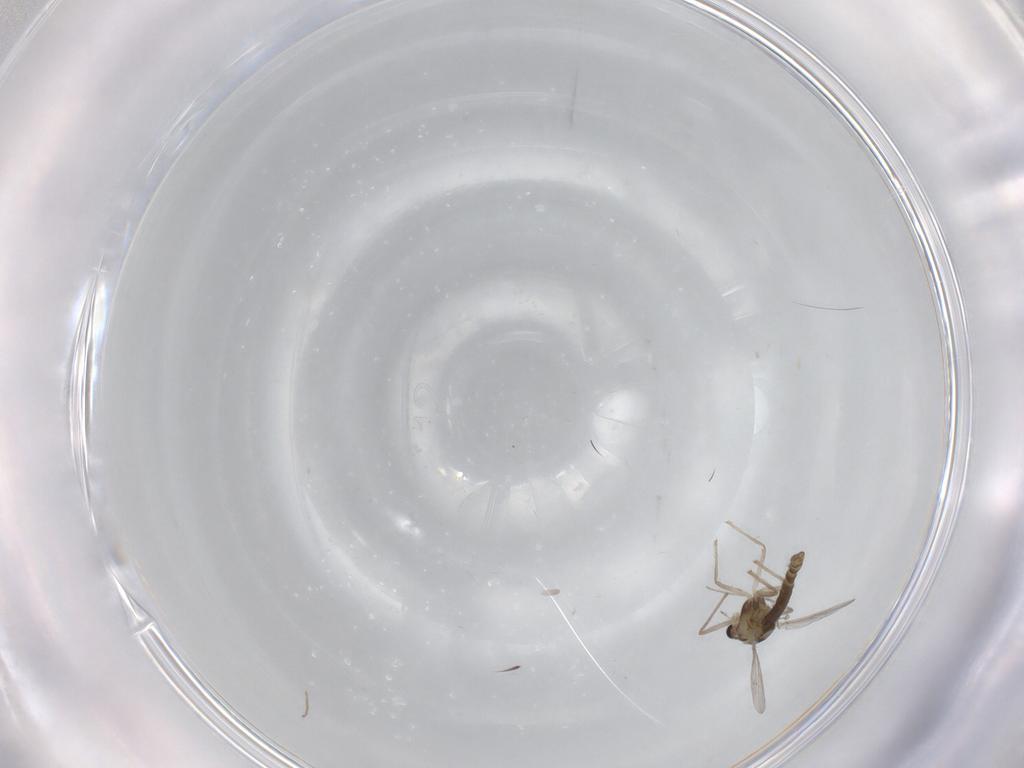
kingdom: Animalia
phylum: Arthropoda
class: Insecta
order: Diptera
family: Chironomidae
